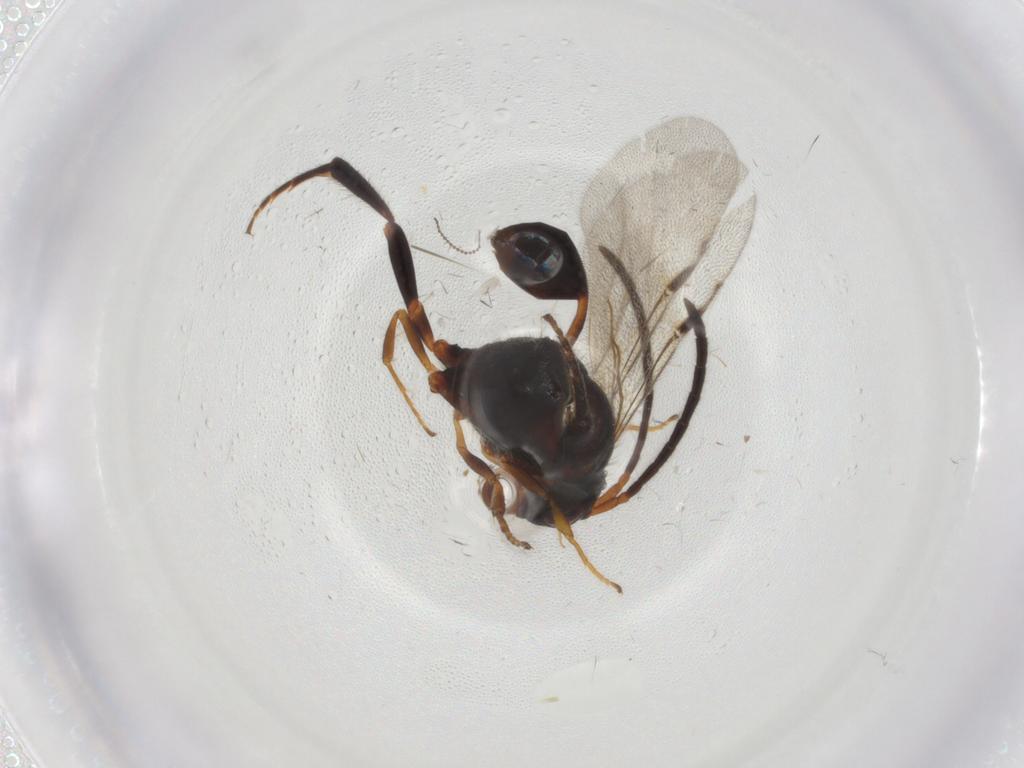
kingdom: Animalia
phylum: Arthropoda
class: Insecta
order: Hymenoptera
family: Evaniidae
